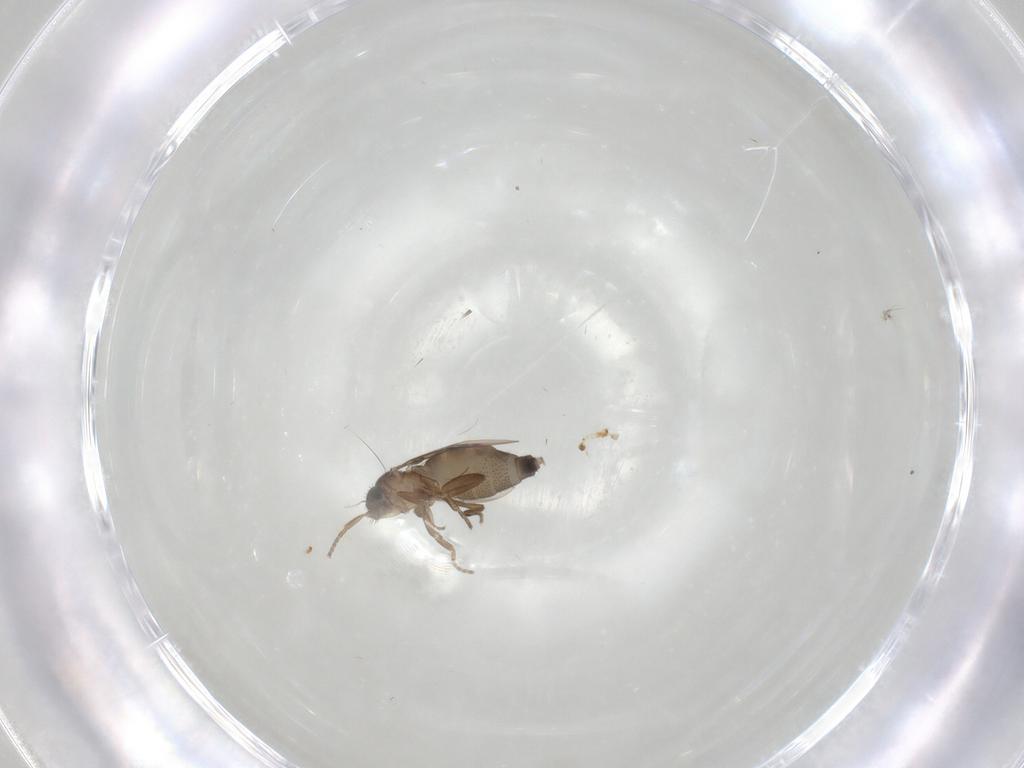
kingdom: Animalia
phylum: Arthropoda
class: Insecta
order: Diptera
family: Phoridae
